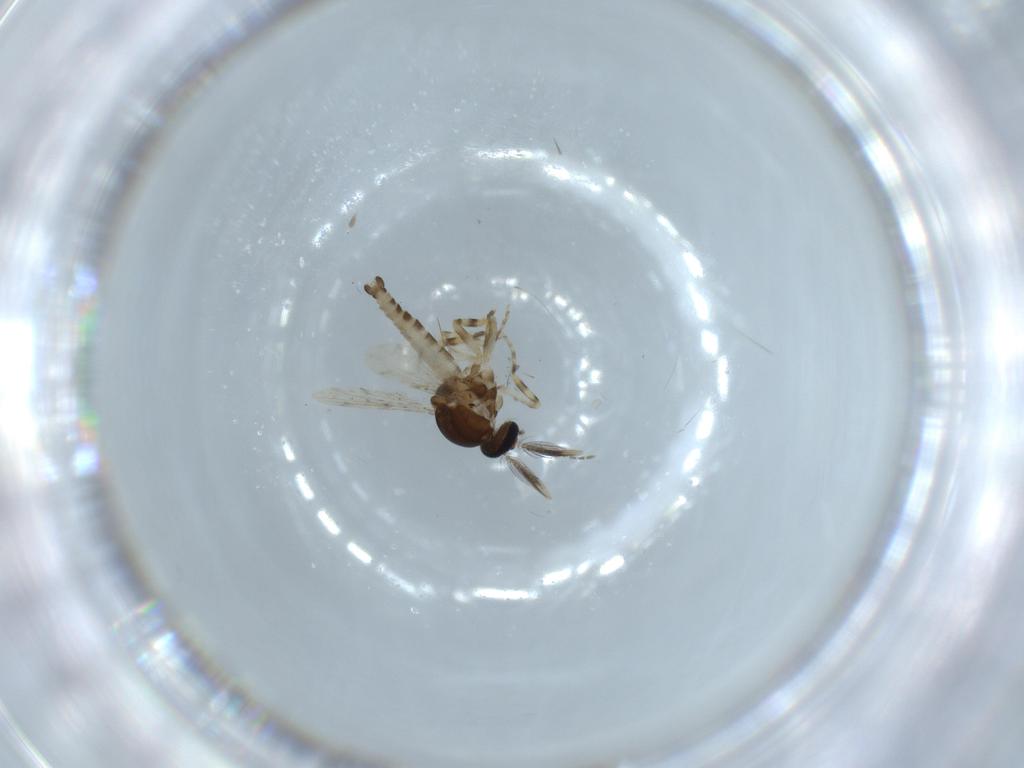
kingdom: Animalia
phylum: Arthropoda
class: Insecta
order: Diptera
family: Ceratopogonidae
